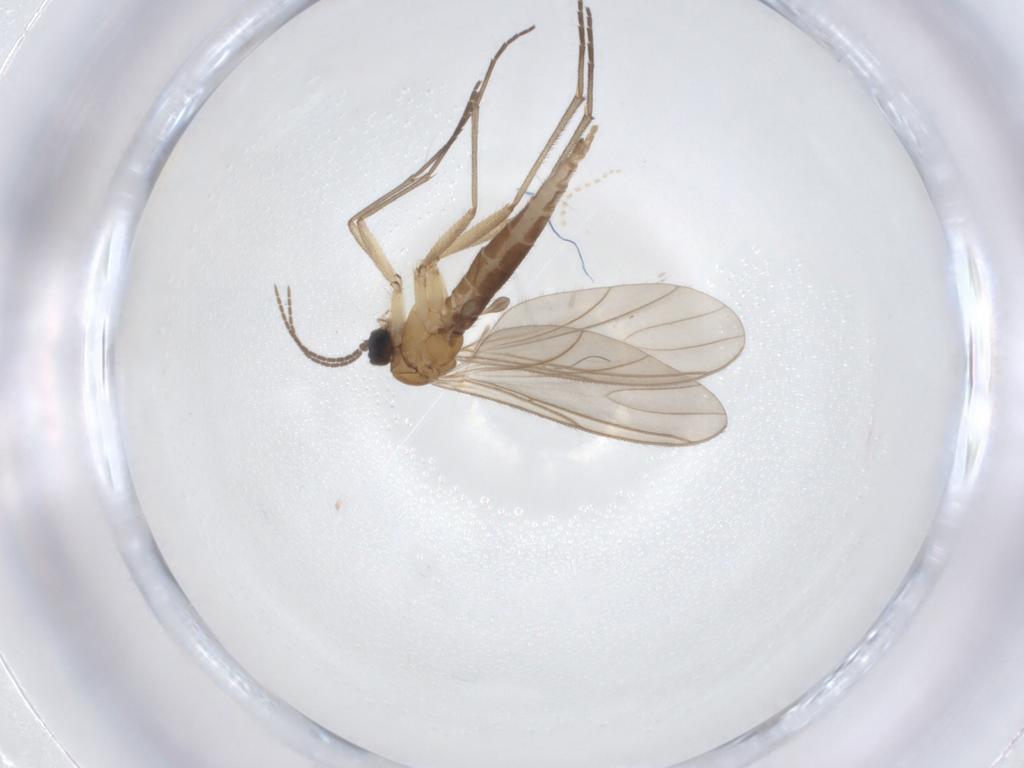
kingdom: Animalia
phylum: Arthropoda
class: Insecta
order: Diptera
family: Sciaridae
